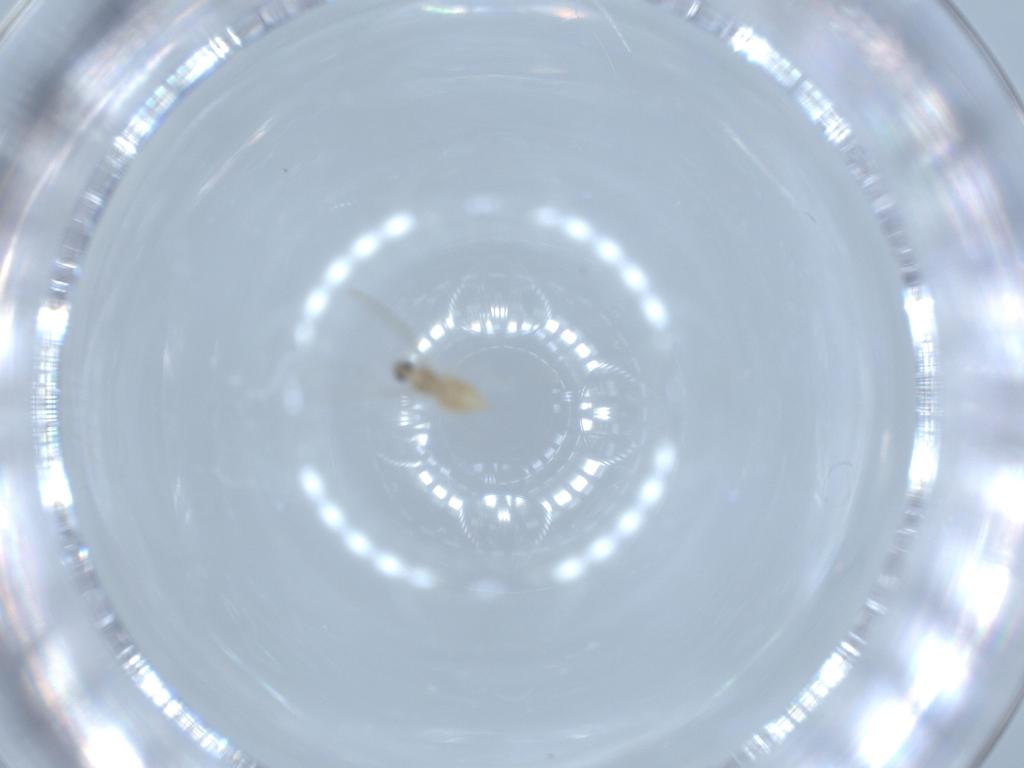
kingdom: Animalia
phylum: Arthropoda
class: Insecta
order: Diptera
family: Cecidomyiidae
